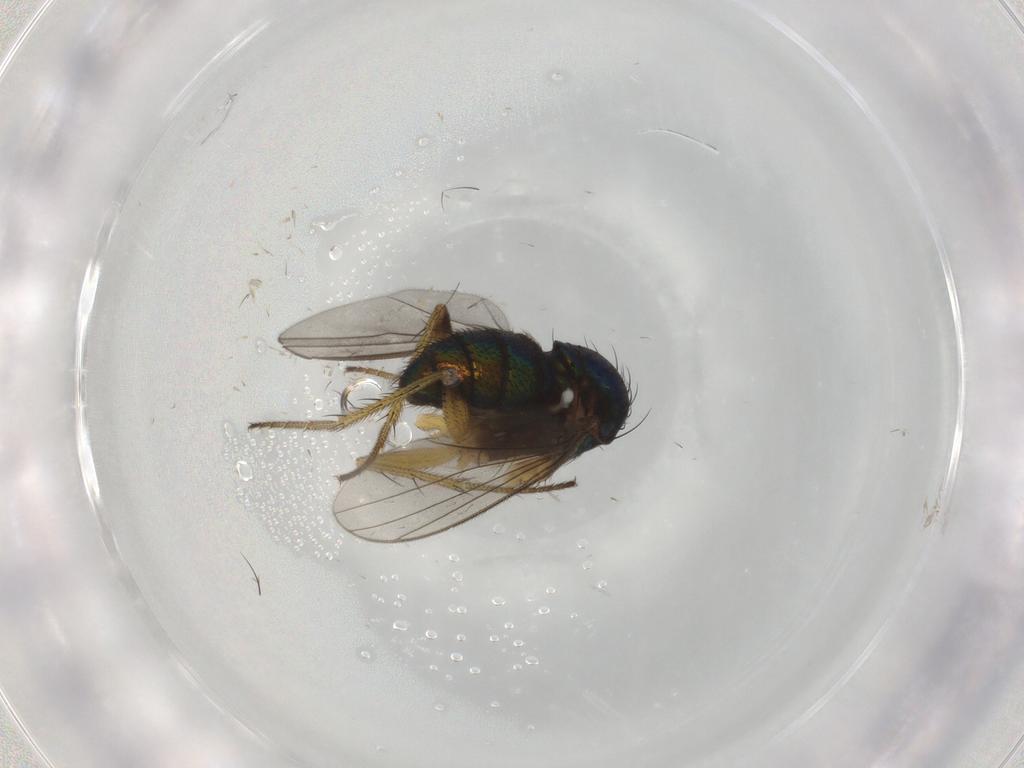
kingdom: Animalia
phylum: Arthropoda
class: Insecta
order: Diptera
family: Dolichopodidae
